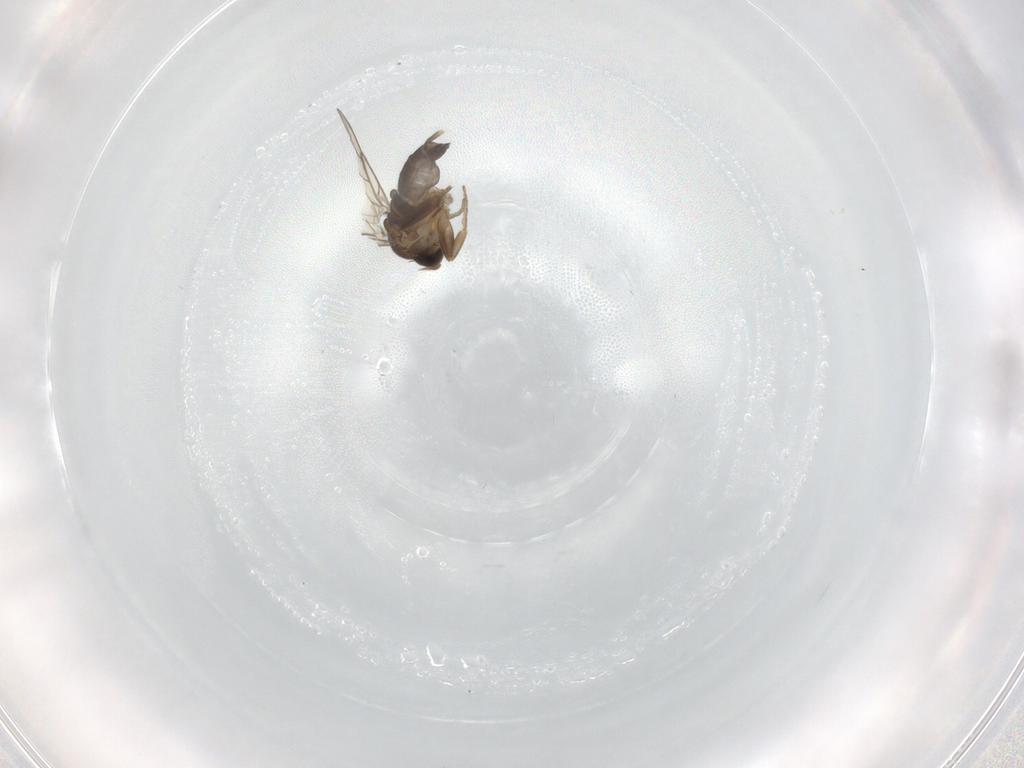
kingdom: Animalia
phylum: Arthropoda
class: Insecta
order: Diptera
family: Phoridae
